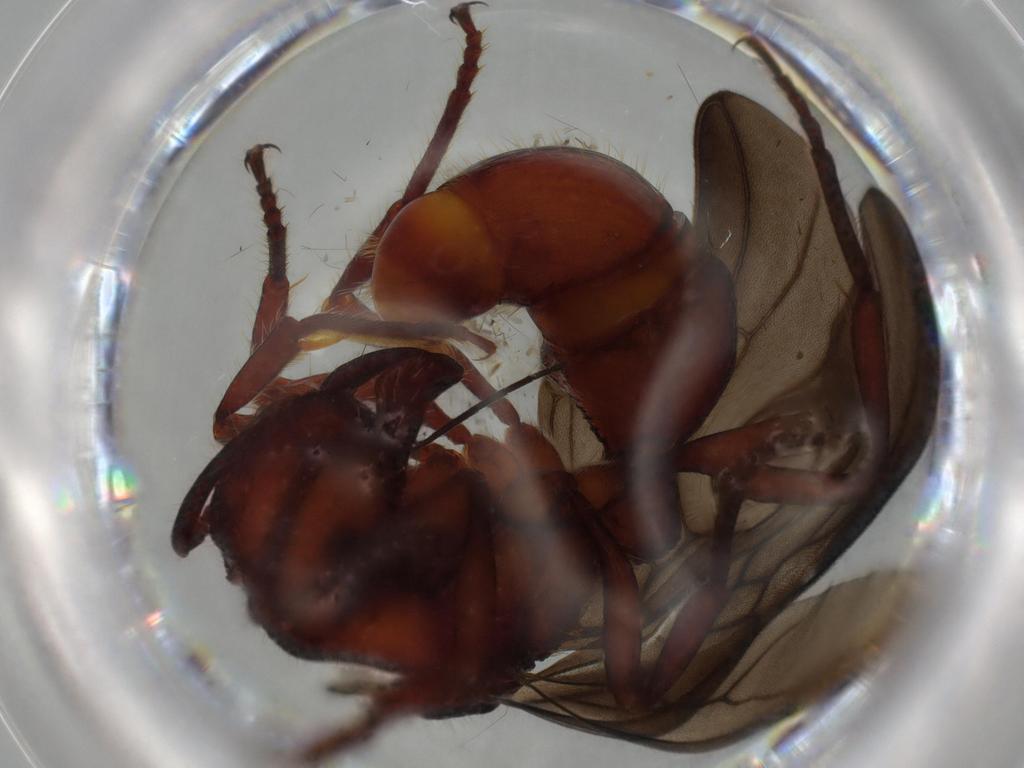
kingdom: Animalia
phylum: Arthropoda
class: Insecta
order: Hymenoptera
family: Formicidae
